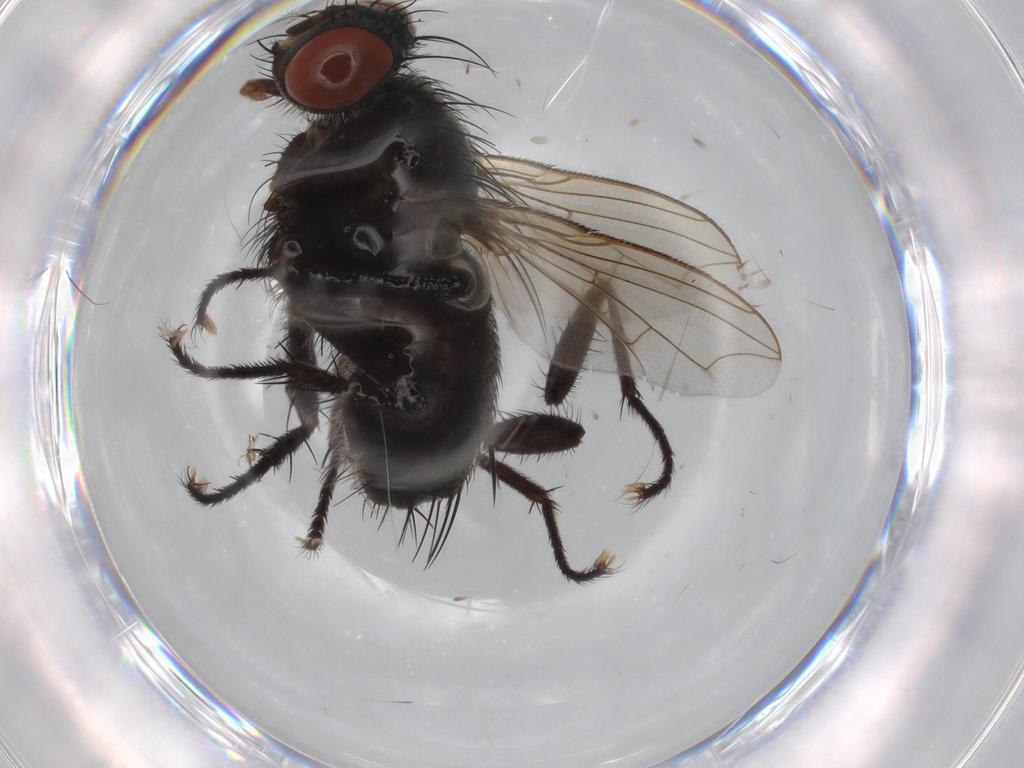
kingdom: Animalia
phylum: Arthropoda
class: Insecta
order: Diptera
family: Sarcophagidae
